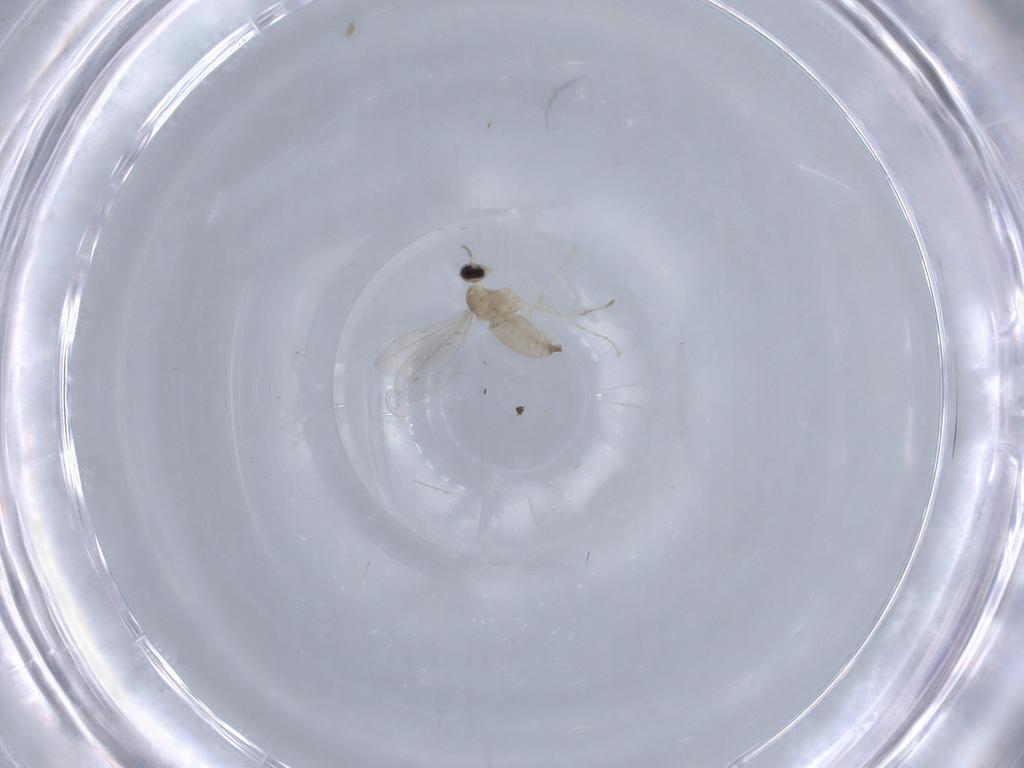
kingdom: Animalia
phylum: Arthropoda
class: Insecta
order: Diptera
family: Cecidomyiidae
